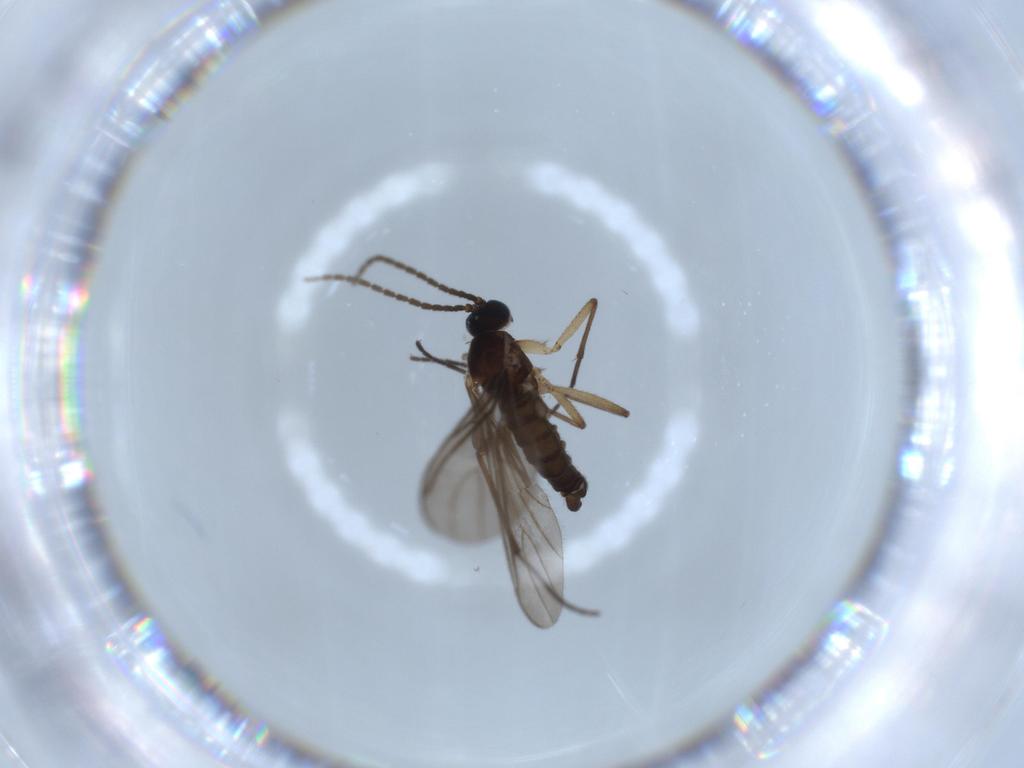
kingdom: Animalia
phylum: Arthropoda
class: Insecta
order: Diptera
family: Sciaridae
